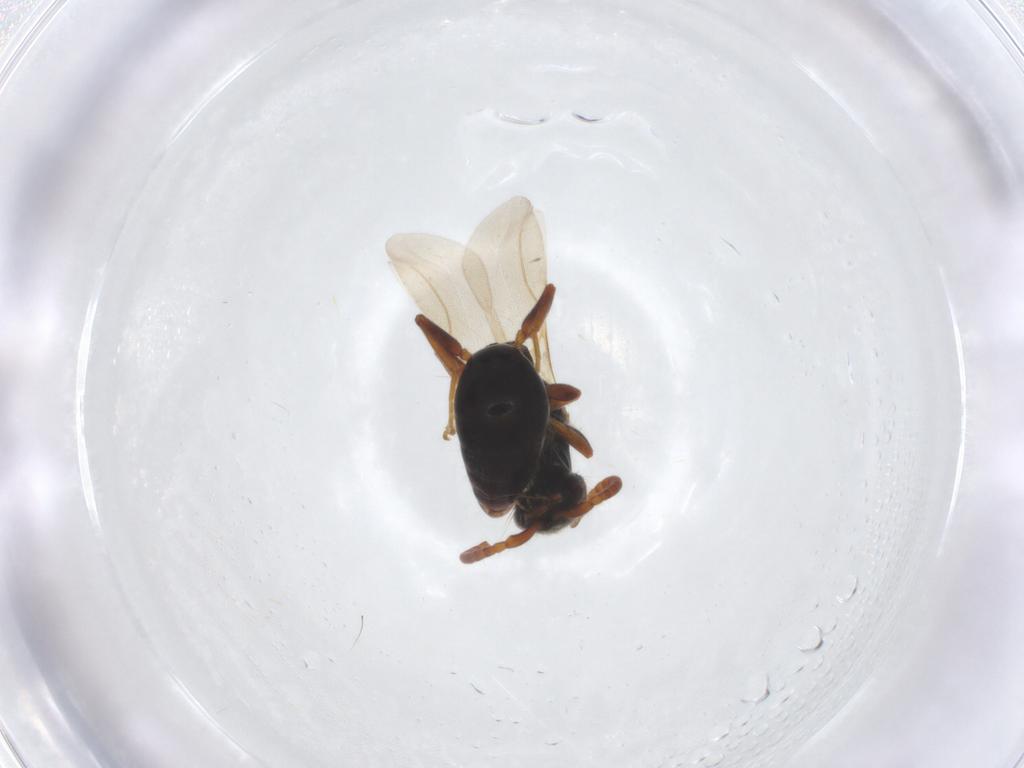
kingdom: Animalia
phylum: Arthropoda
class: Insecta
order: Hymenoptera
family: Bethylidae
